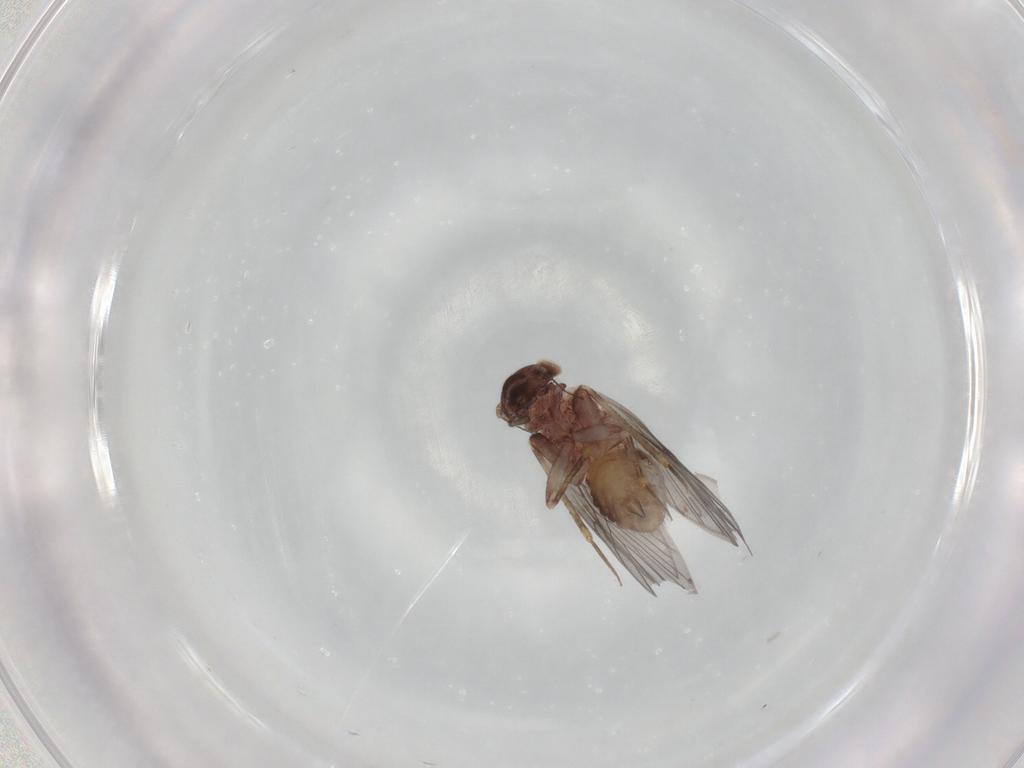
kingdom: Animalia
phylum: Arthropoda
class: Insecta
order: Psocodea
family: Lepidopsocidae
